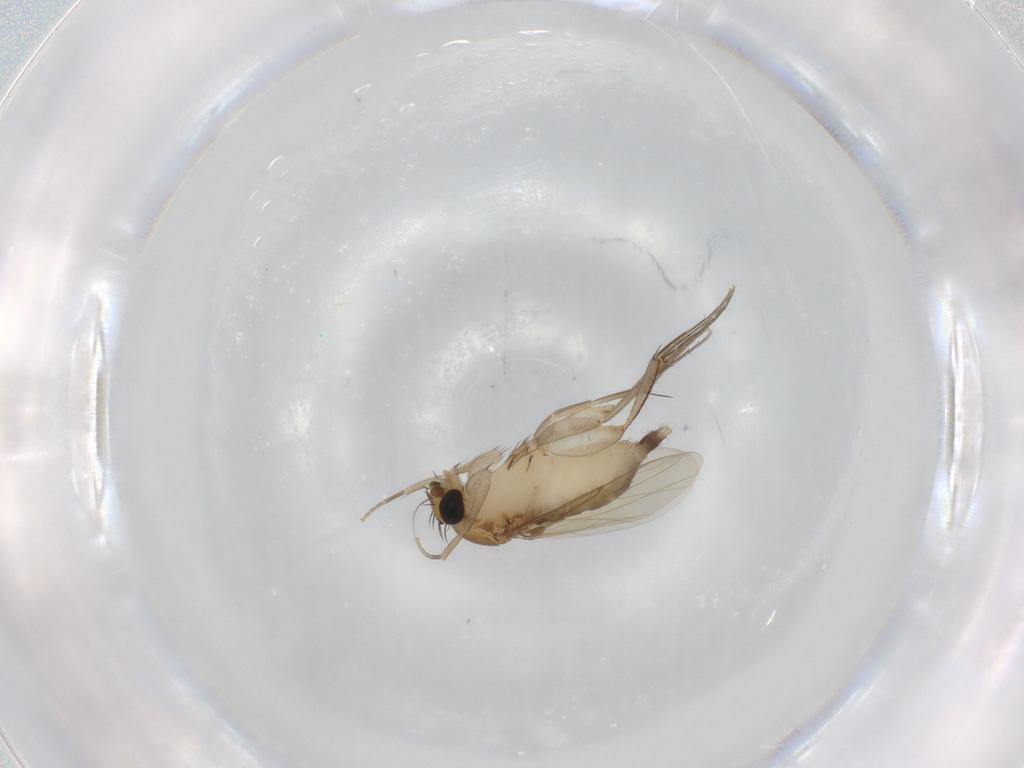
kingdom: Animalia
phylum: Arthropoda
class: Insecta
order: Diptera
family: Phoridae
